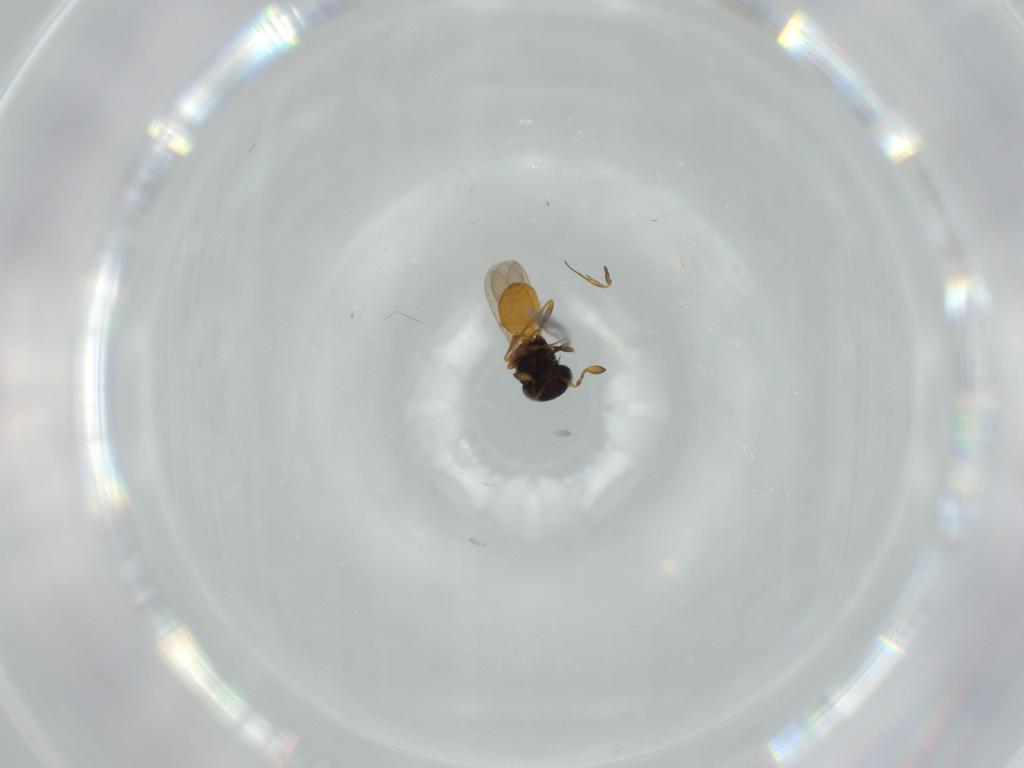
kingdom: Animalia
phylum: Arthropoda
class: Insecta
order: Hymenoptera
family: Scelionidae
